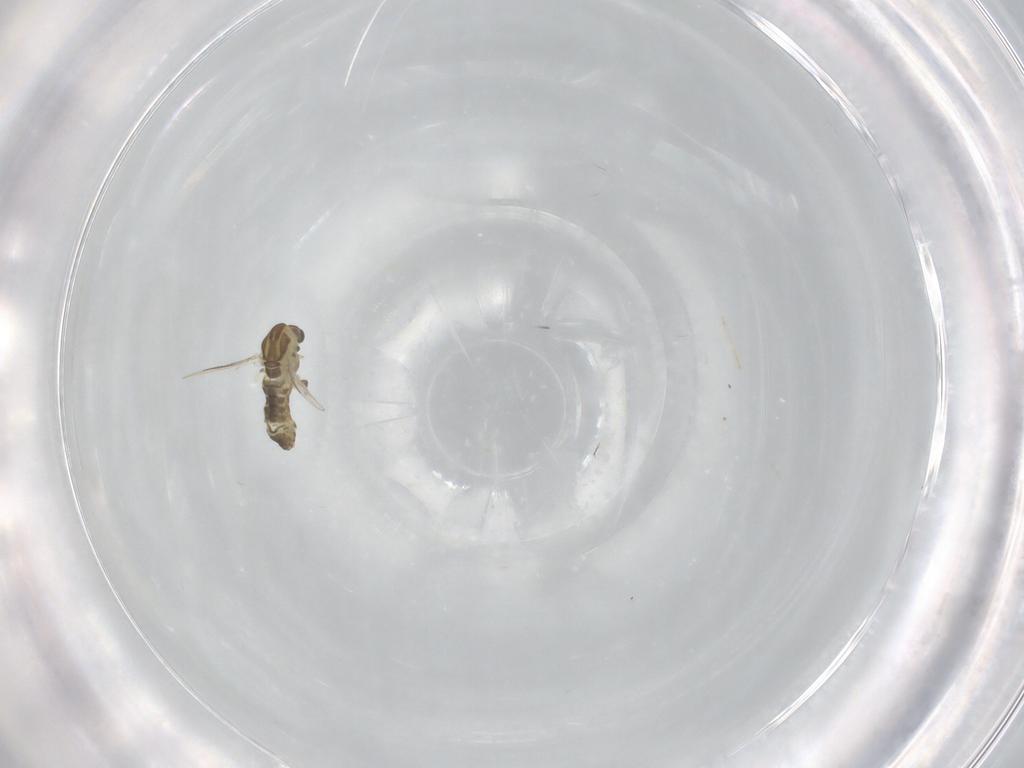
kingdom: Animalia
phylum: Arthropoda
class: Insecta
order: Diptera
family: Chironomidae
